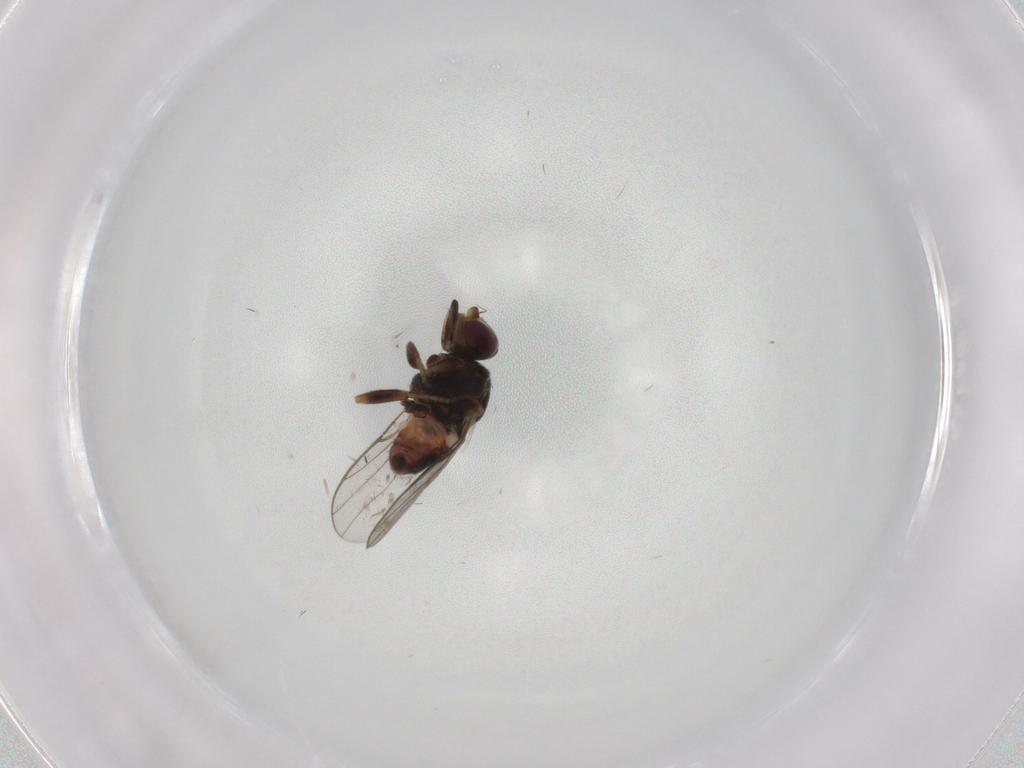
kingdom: Animalia
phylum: Arthropoda
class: Insecta
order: Diptera
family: Chloropidae
